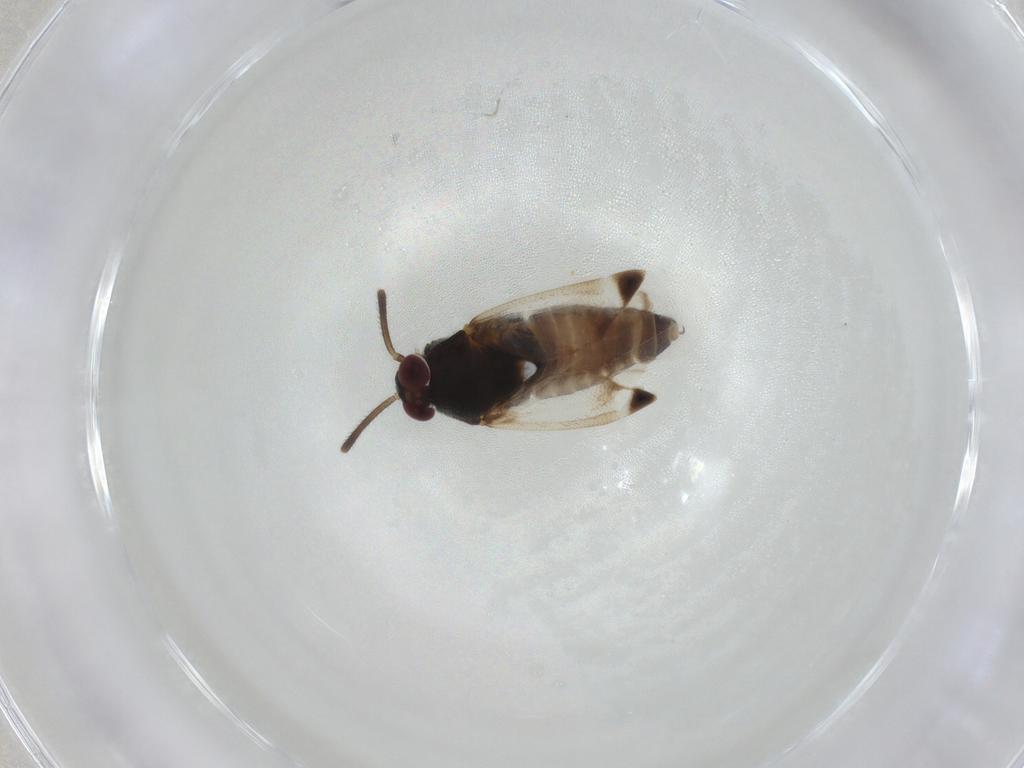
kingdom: Animalia
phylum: Arthropoda
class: Insecta
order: Hemiptera
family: Miridae
